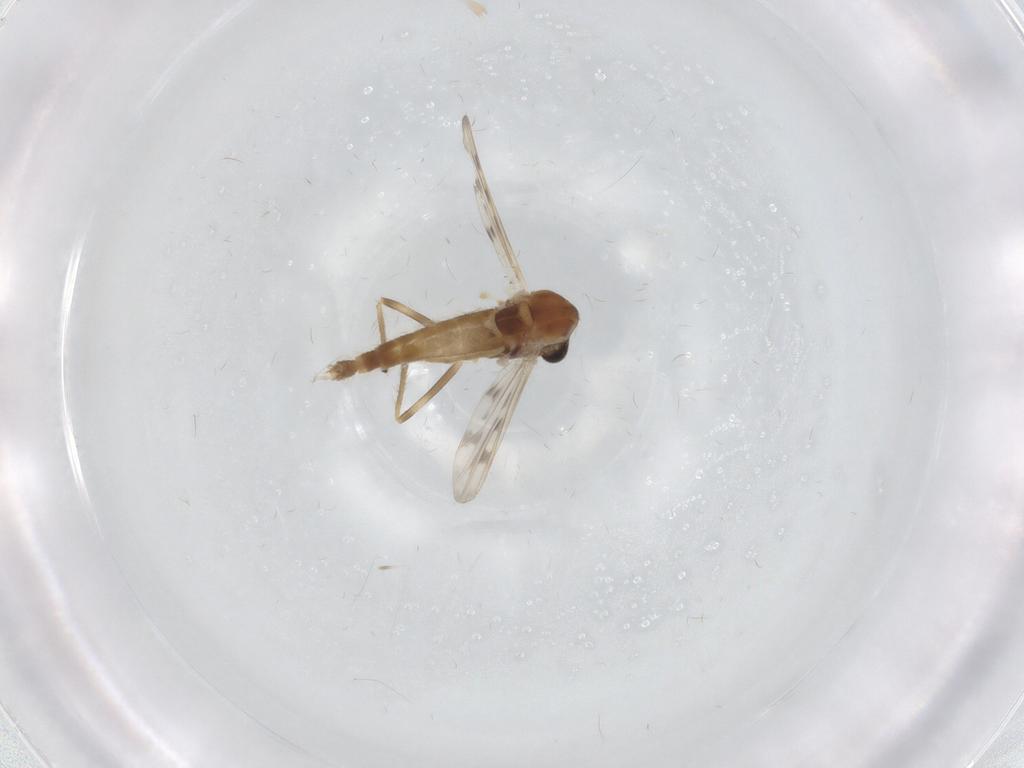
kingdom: Animalia
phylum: Arthropoda
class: Insecta
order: Diptera
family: Chironomidae
